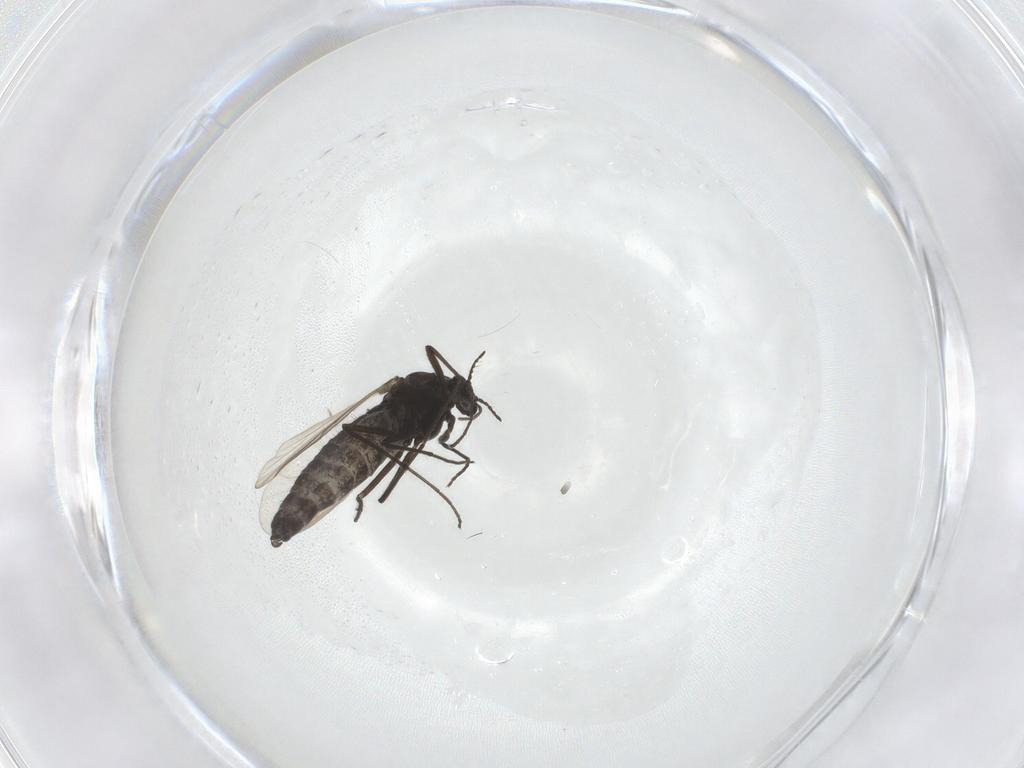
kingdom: Animalia
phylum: Arthropoda
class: Insecta
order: Diptera
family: Chironomidae
